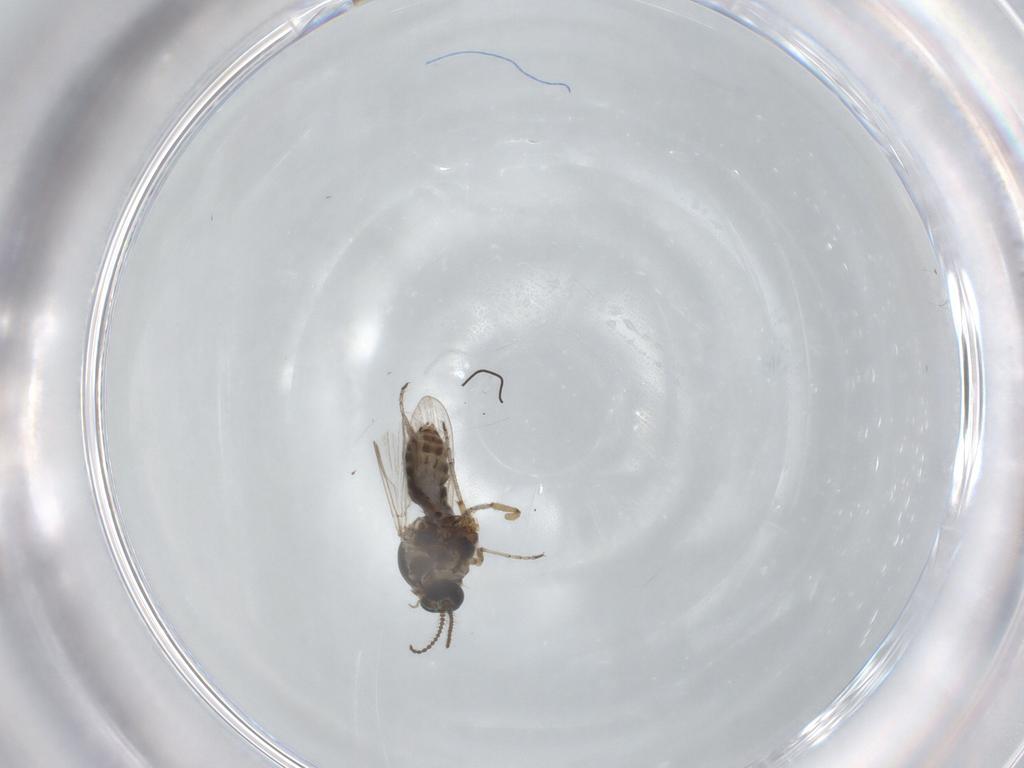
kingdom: Animalia
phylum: Arthropoda
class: Insecta
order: Diptera
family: Ceratopogonidae
